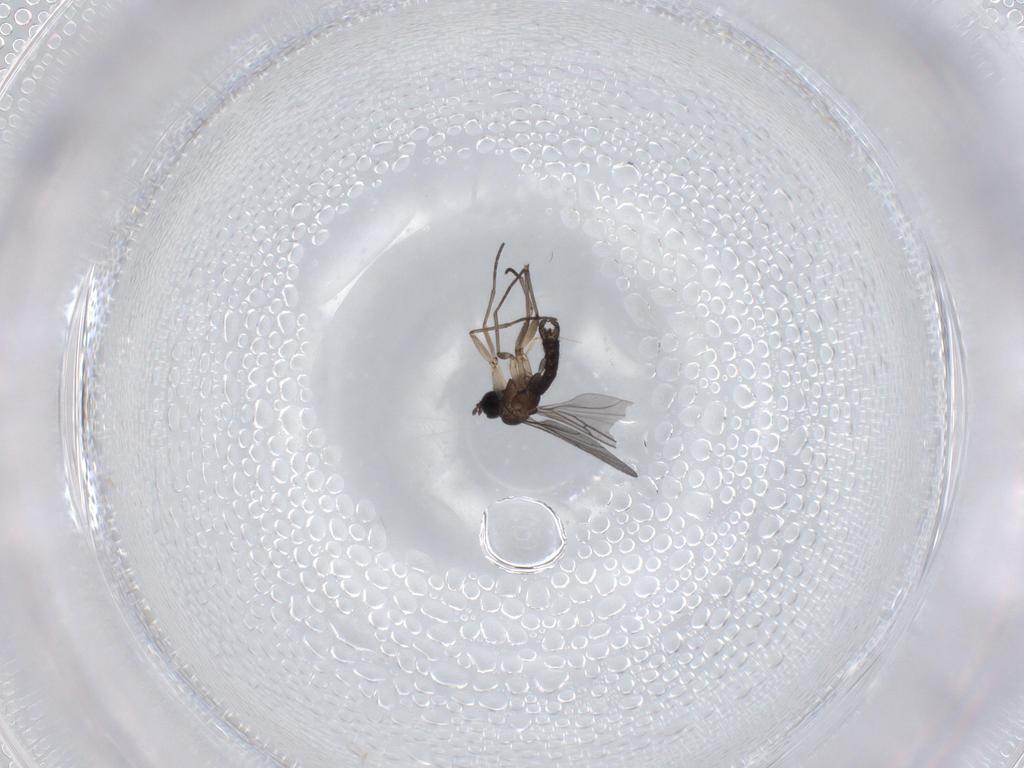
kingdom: Animalia
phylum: Arthropoda
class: Insecta
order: Diptera
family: Sciaridae
